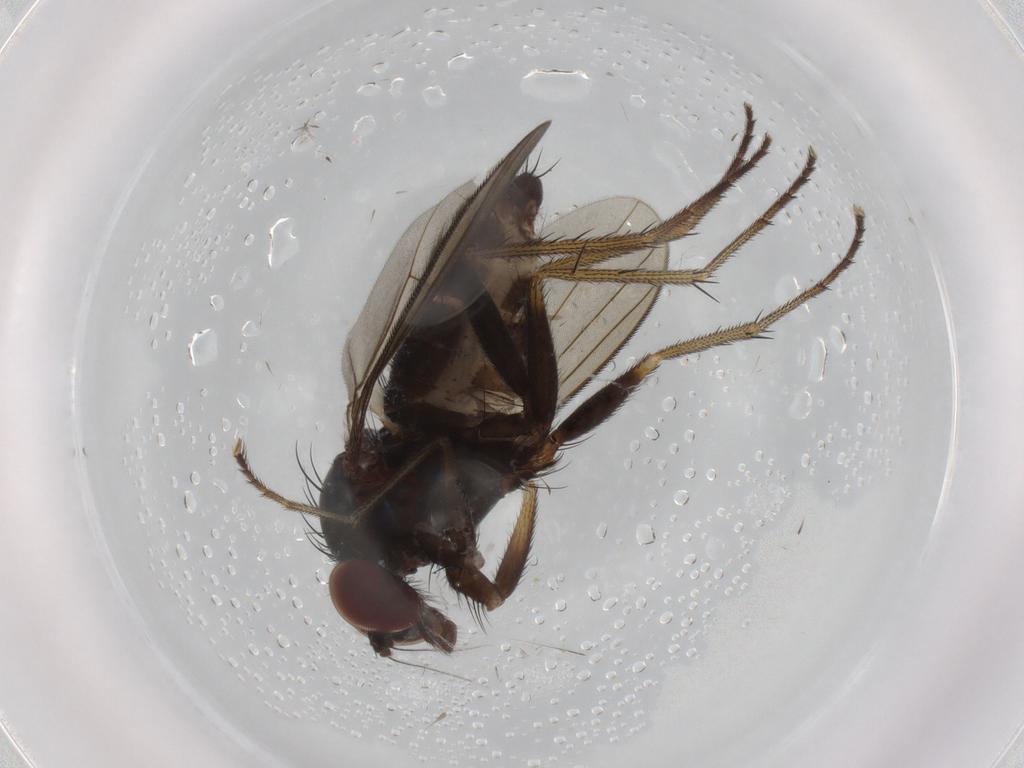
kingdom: Animalia
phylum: Arthropoda
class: Insecta
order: Diptera
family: Dolichopodidae
